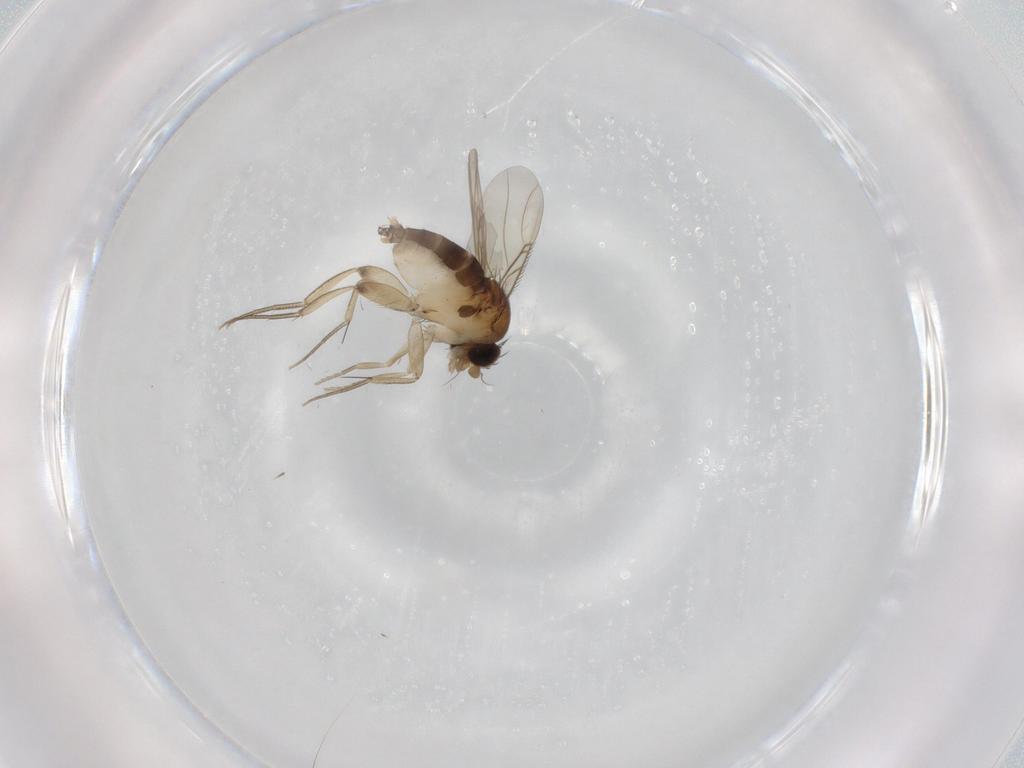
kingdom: Animalia
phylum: Arthropoda
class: Insecta
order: Diptera
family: Phoridae
